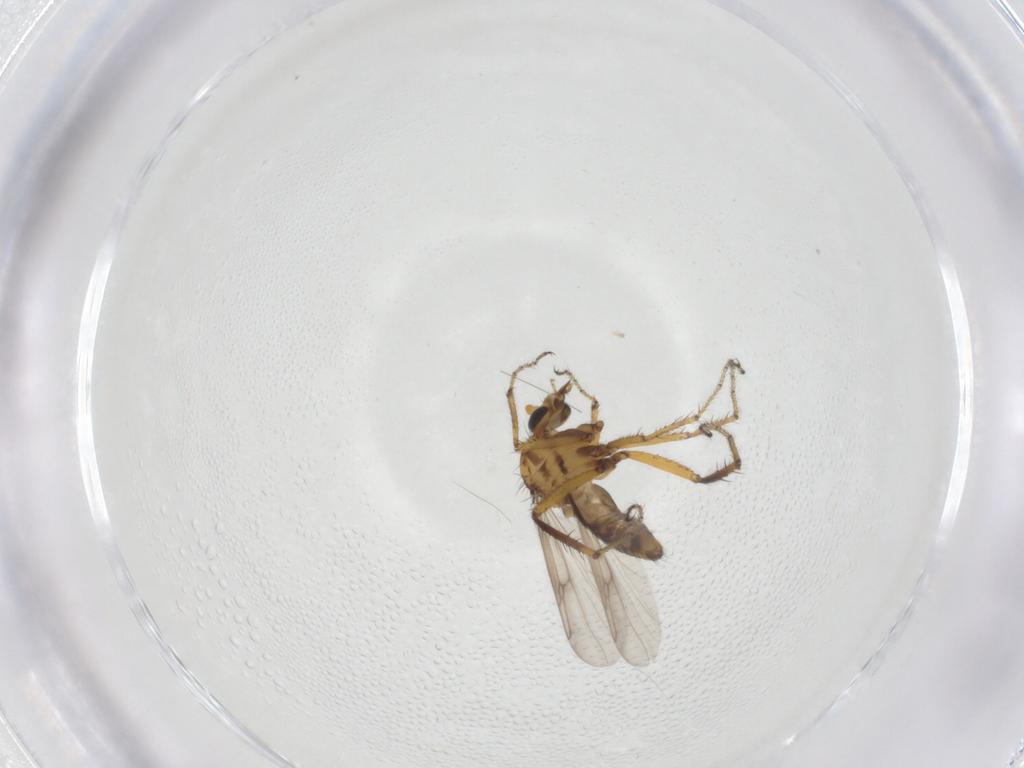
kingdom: Animalia
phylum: Arthropoda
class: Insecta
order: Diptera
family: Ceratopogonidae
